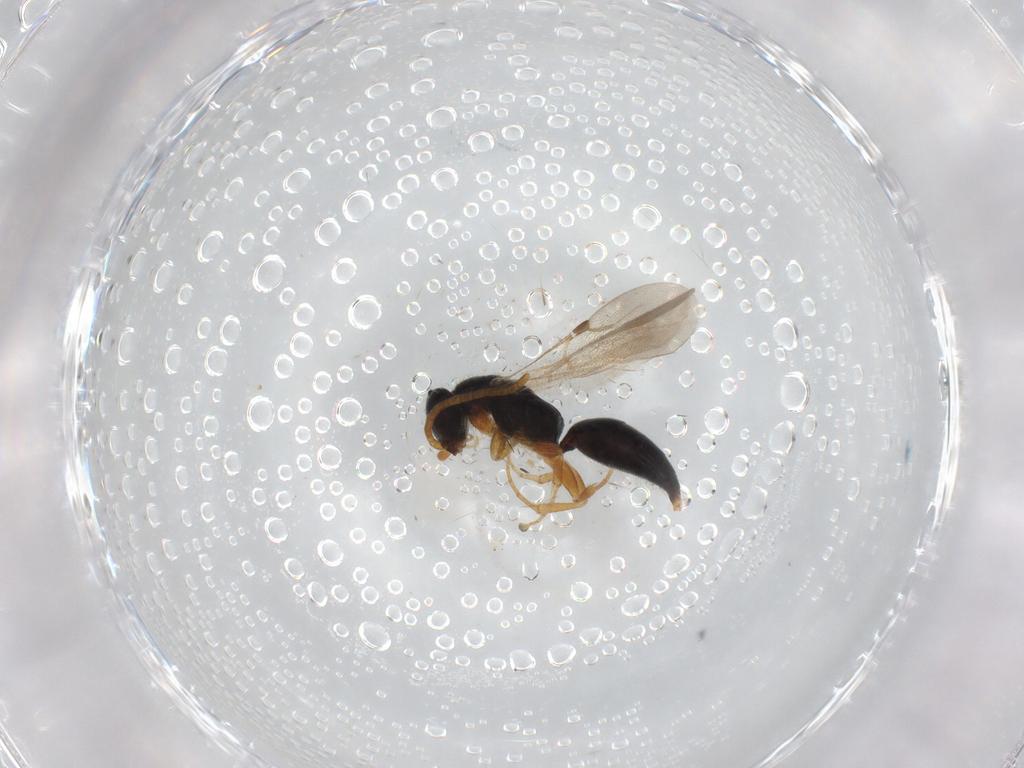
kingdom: Animalia
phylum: Arthropoda
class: Insecta
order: Hymenoptera
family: Bethylidae
